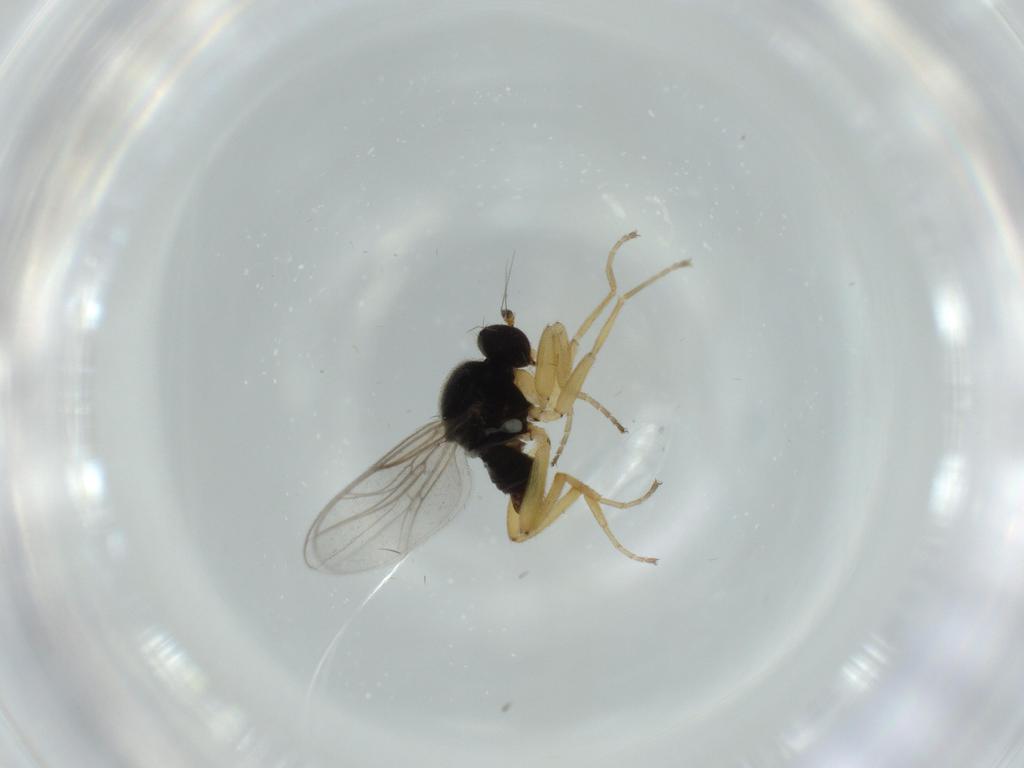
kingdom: Animalia
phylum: Arthropoda
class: Insecta
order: Diptera
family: Hybotidae
